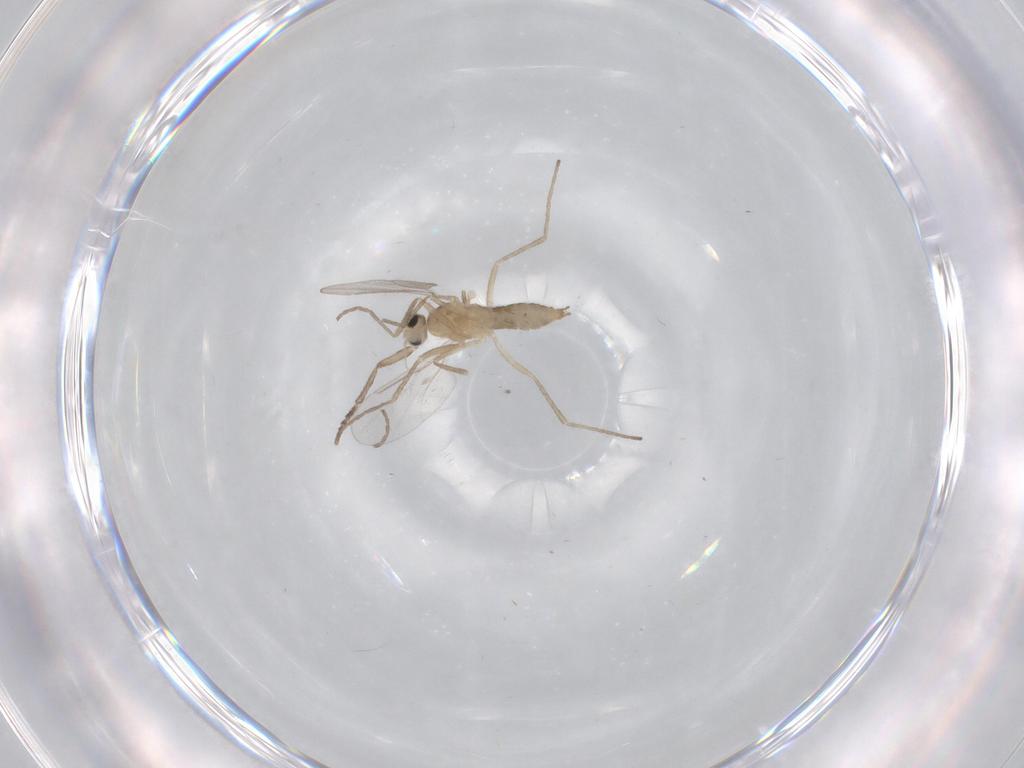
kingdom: Animalia
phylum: Arthropoda
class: Insecta
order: Diptera
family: Cecidomyiidae
